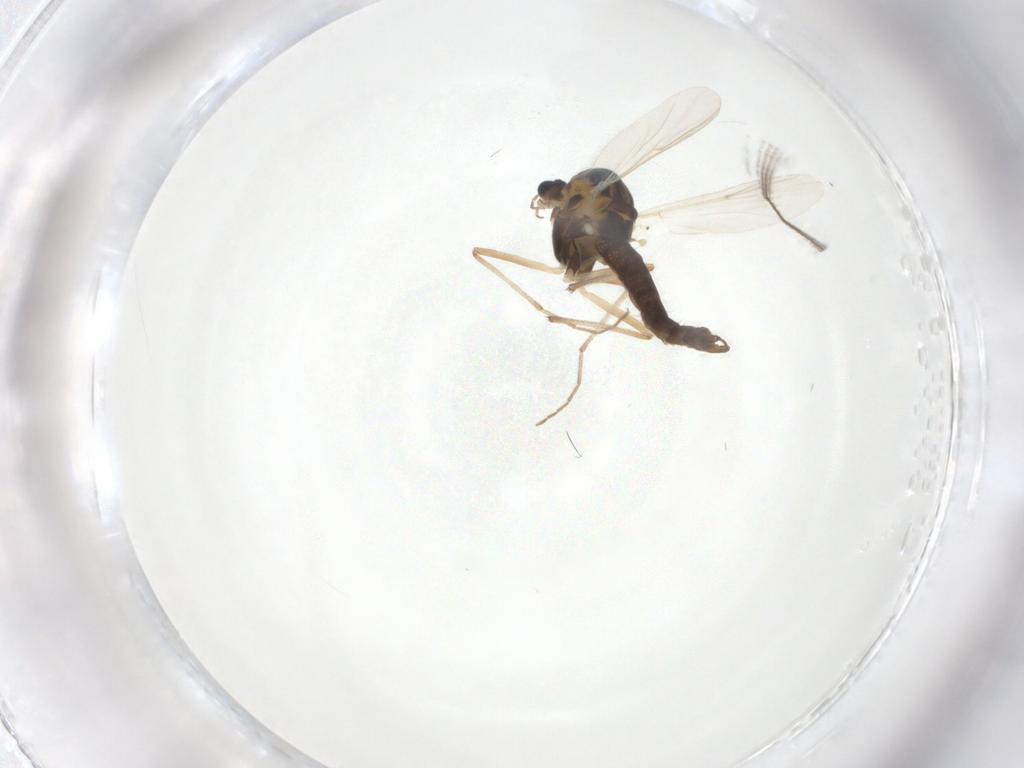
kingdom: Animalia
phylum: Arthropoda
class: Insecta
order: Diptera
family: Chironomidae
